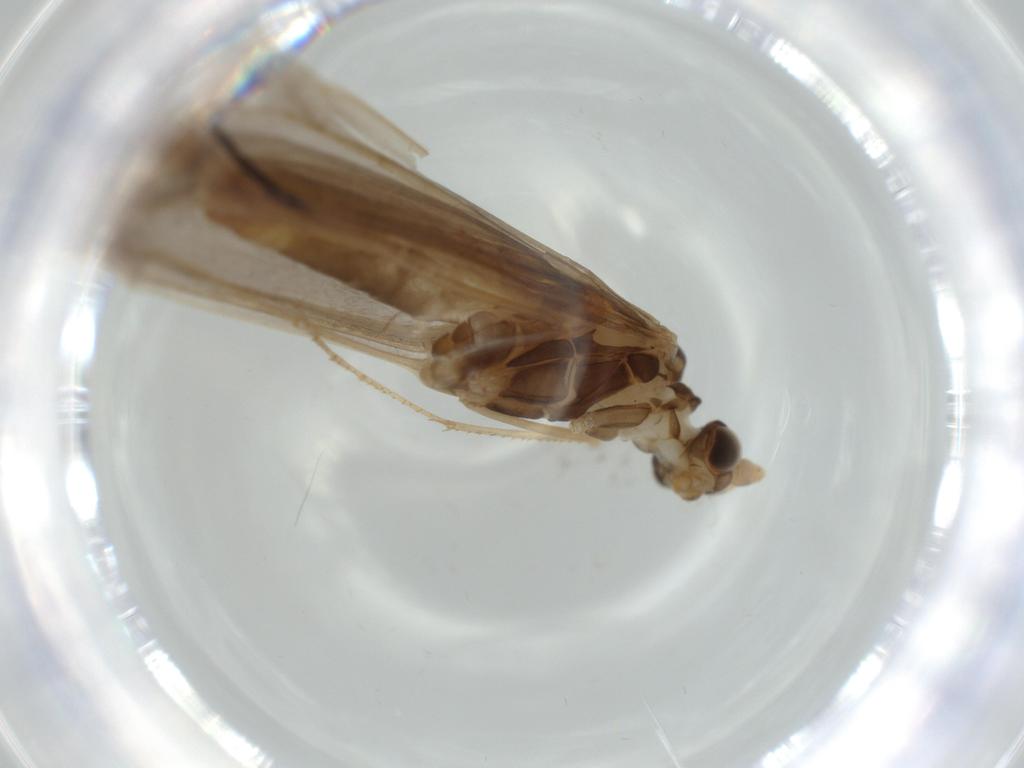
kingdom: Animalia
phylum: Arthropoda
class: Insecta
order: Trichoptera
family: Leptoceridae
